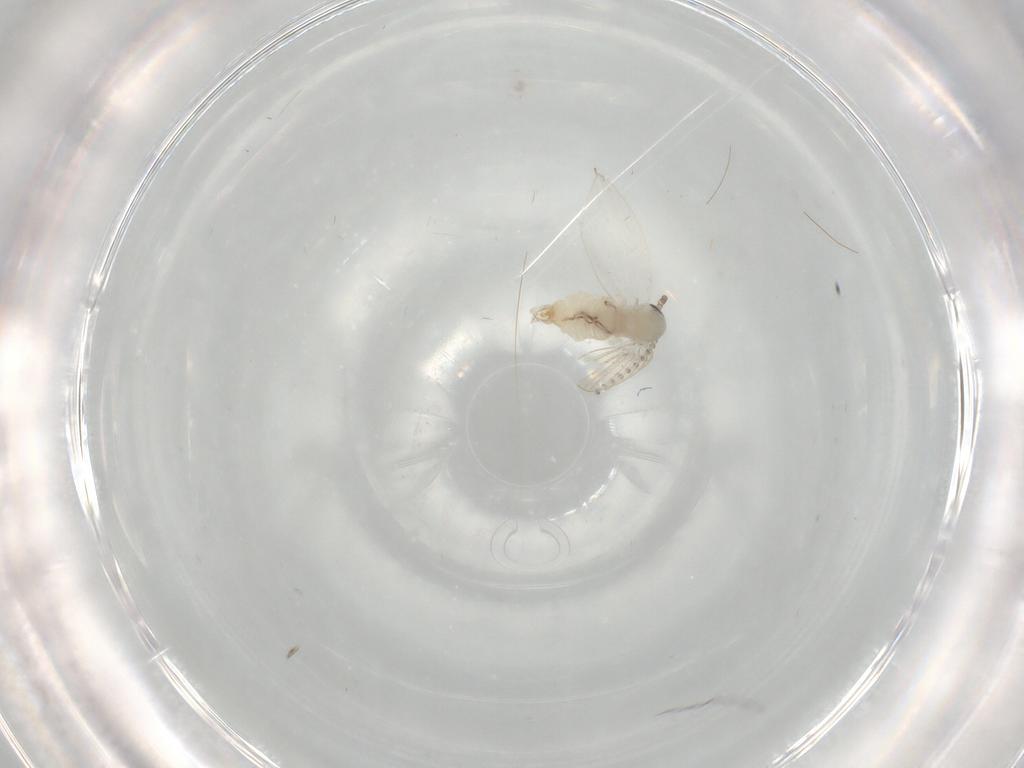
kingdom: Animalia
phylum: Arthropoda
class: Insecta
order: Diptera
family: Psychodidae
